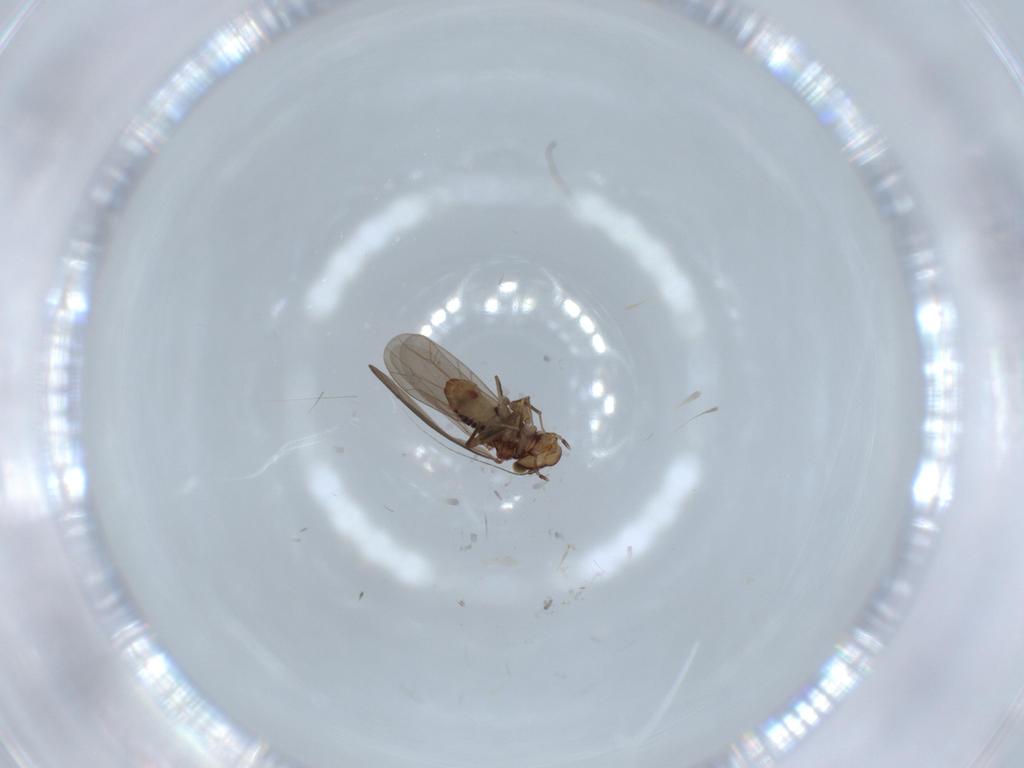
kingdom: Animalia
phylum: Arthropoda
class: Insecta
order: Psocodea
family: Lepidopsocidae
